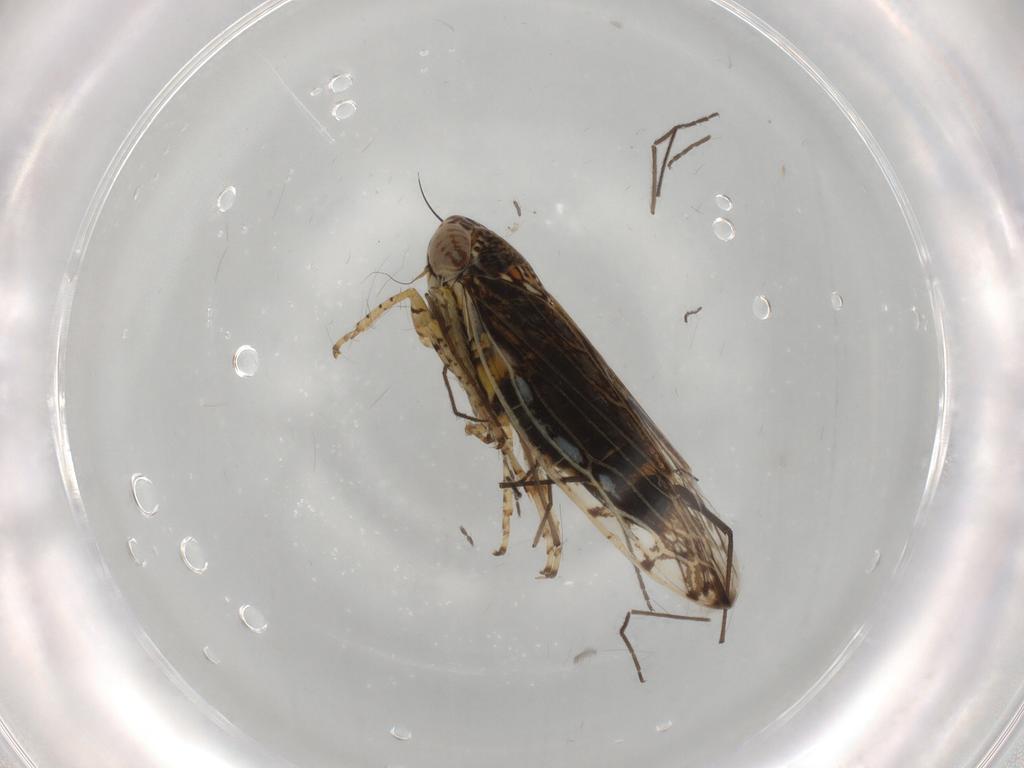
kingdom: Animalia
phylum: Arthropoda
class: Insecta
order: Hemiptera
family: Cicadellidae
